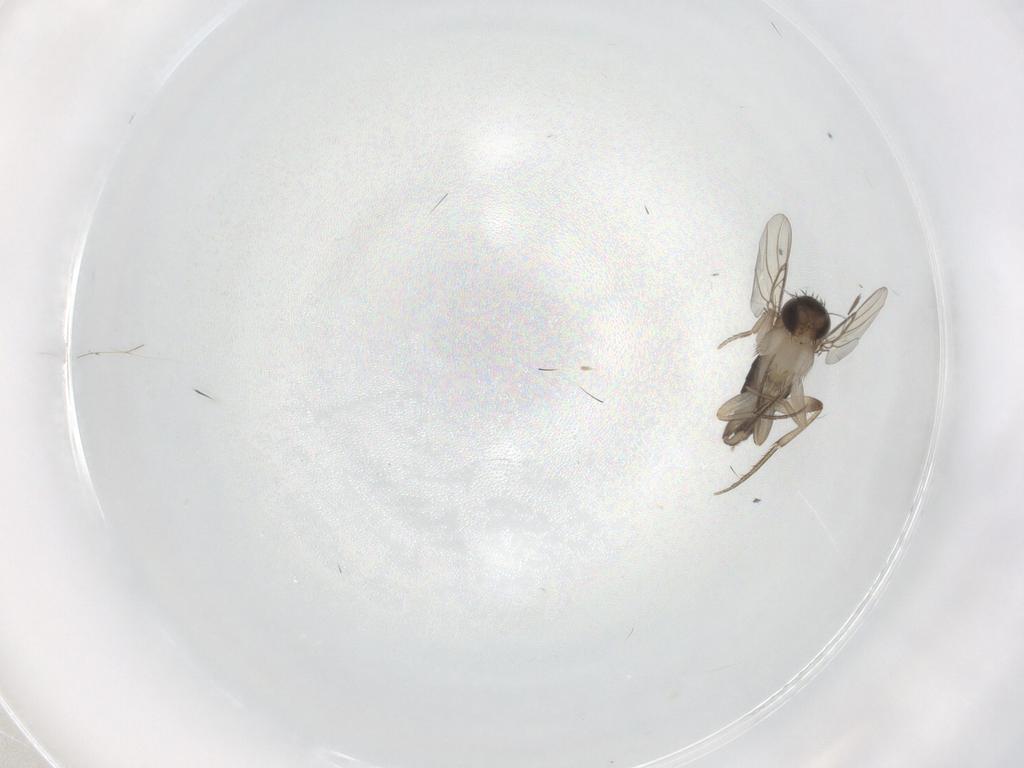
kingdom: Animalia
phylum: Arthropoda
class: Insecta
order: Diptera
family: Phoridae
